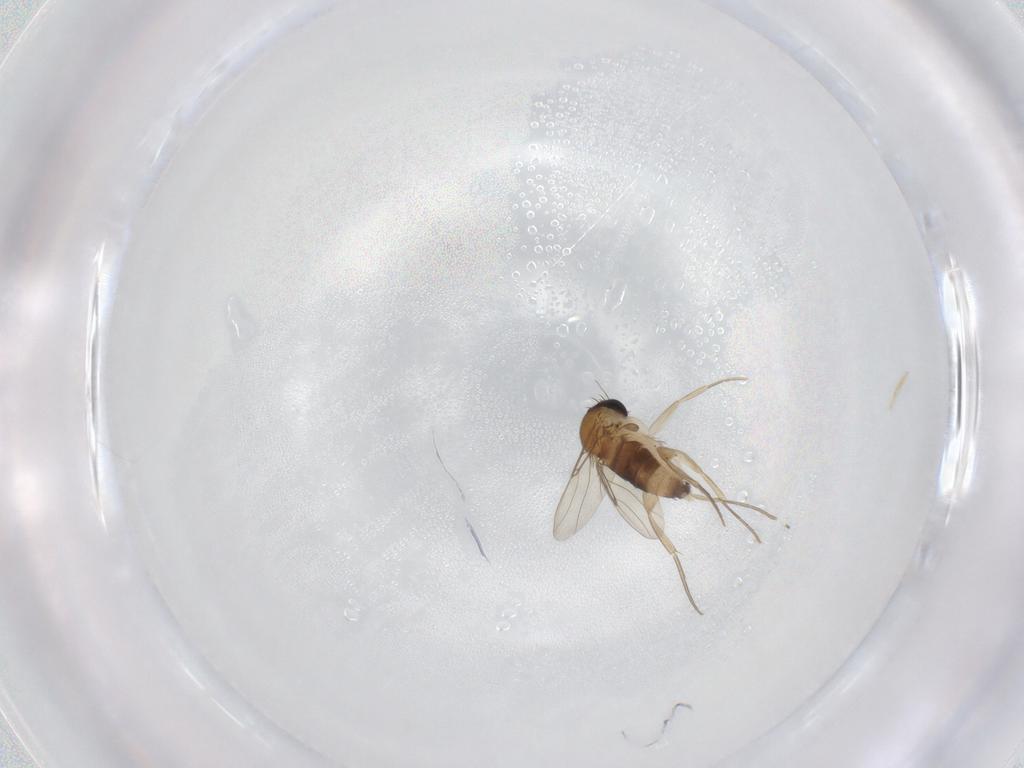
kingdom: Animalia
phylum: Arthropoda
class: Insecta
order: Diptera
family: Phoridae
